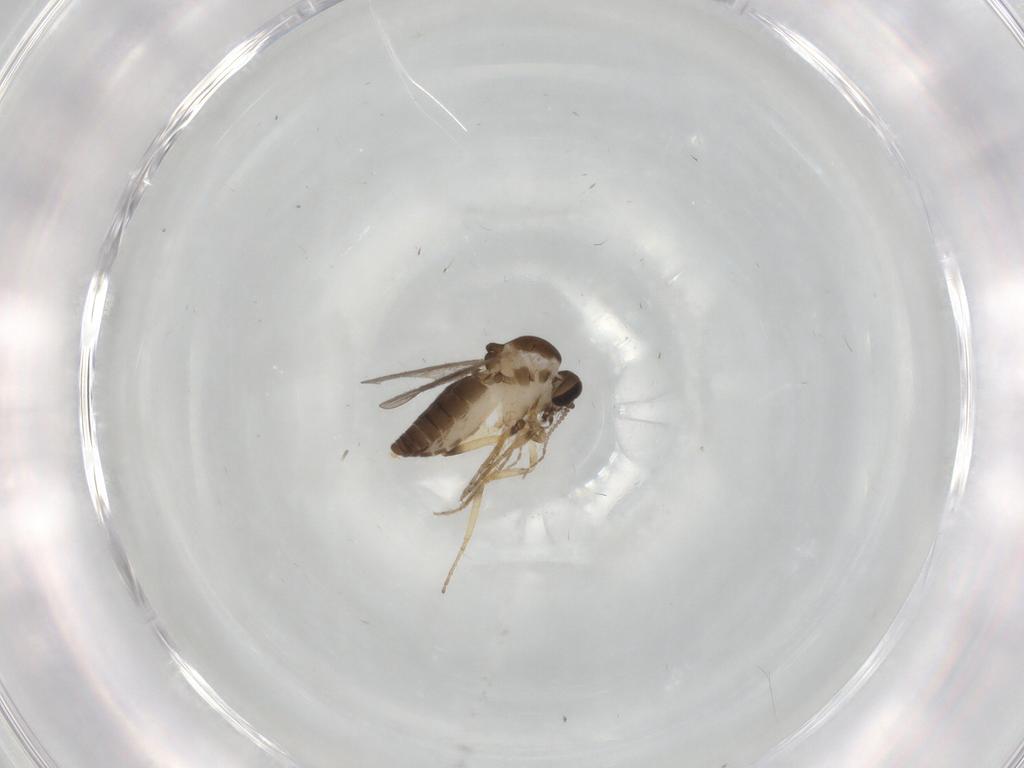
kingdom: Animalia
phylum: Arthropoda
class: Insecta
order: Diptera
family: Ceratopogonidae
